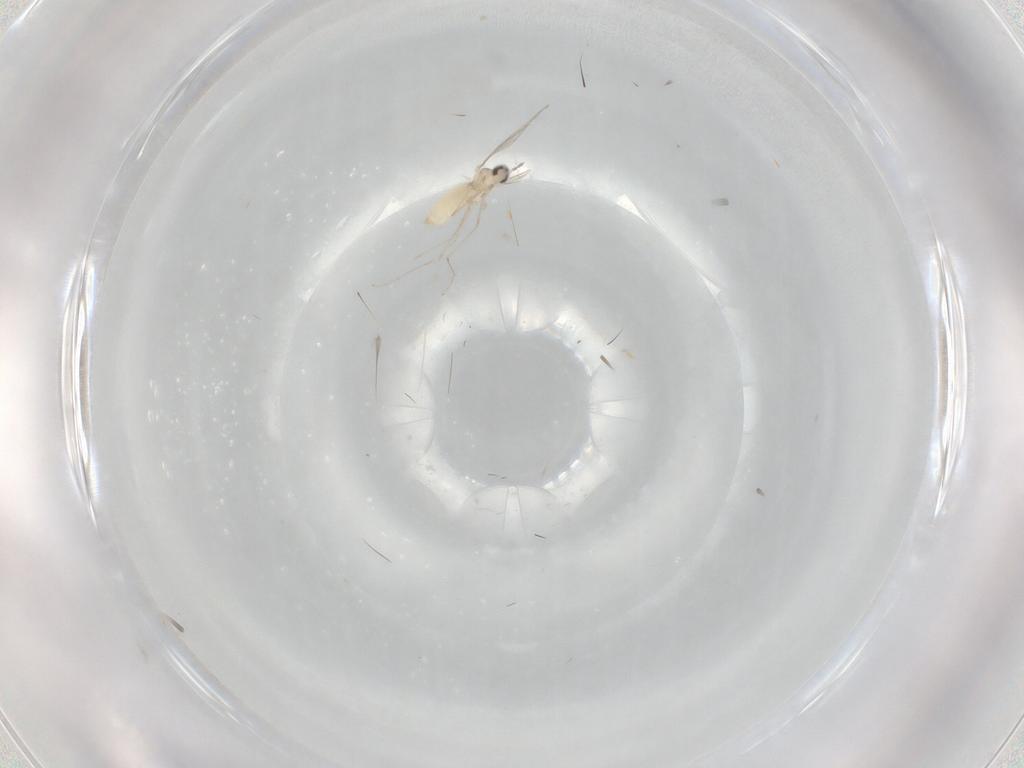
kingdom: Animalia
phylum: Arthropoda
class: Insecta
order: Diptera
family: Cecidomyiidae
